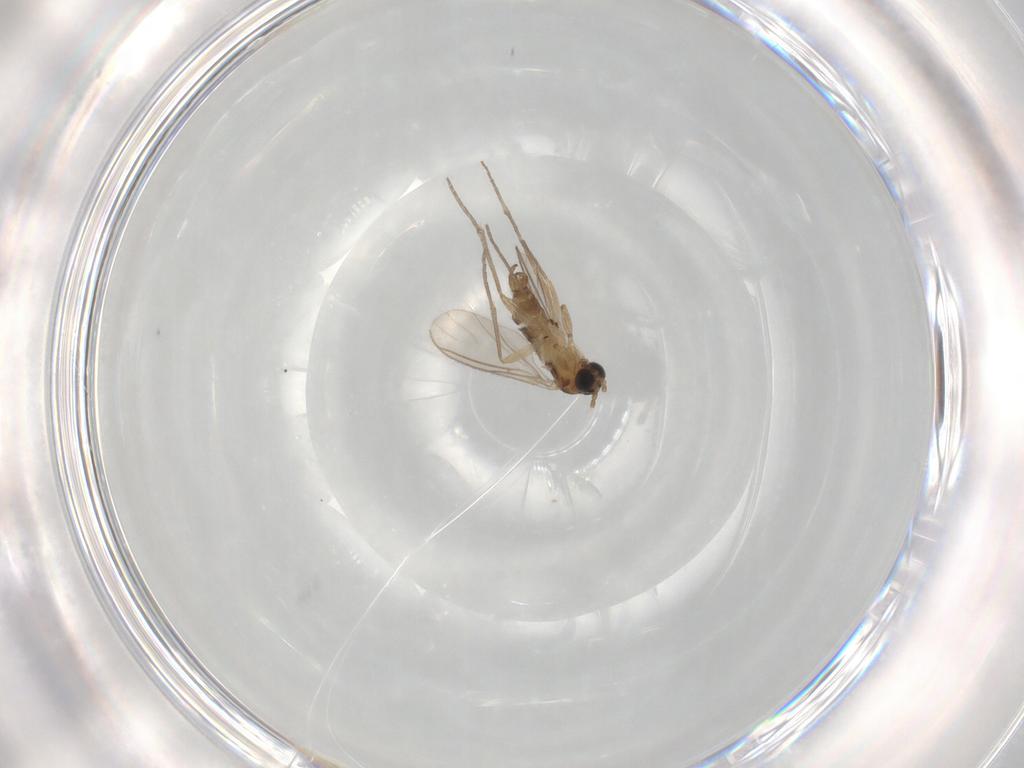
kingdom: Animalia
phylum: Arthropoda
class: Insecta
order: Diptera
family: Sciaridae
